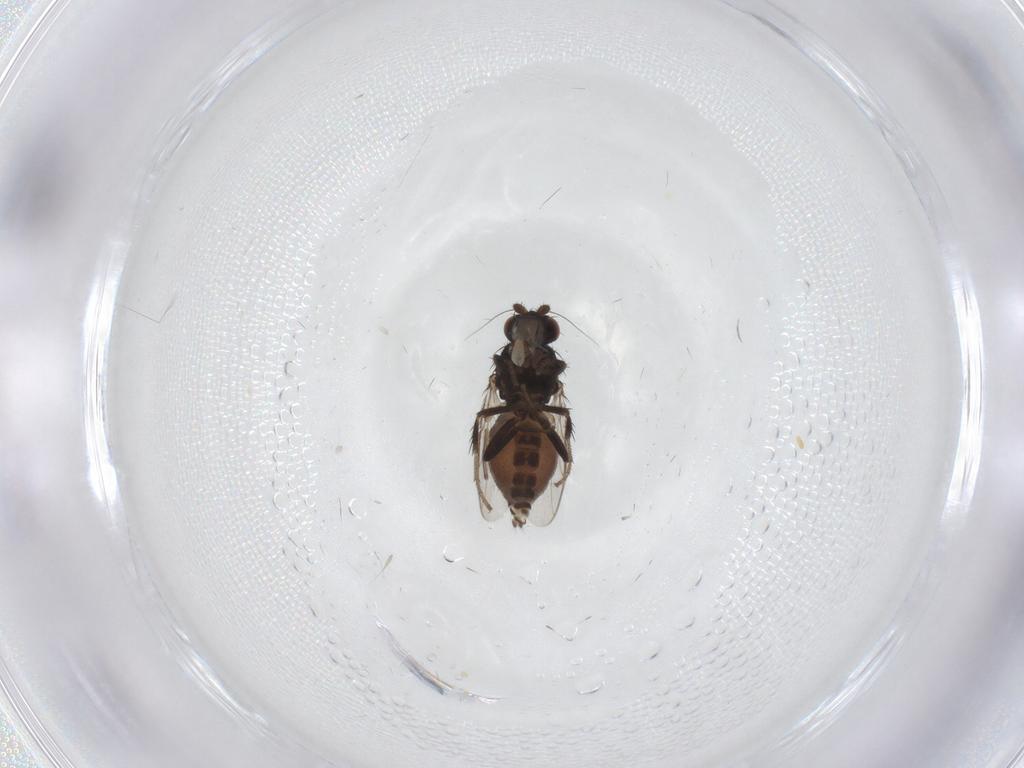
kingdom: Animalia
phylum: Arthropoda
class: Insecta
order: Diptera
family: Sphaeroceridae
